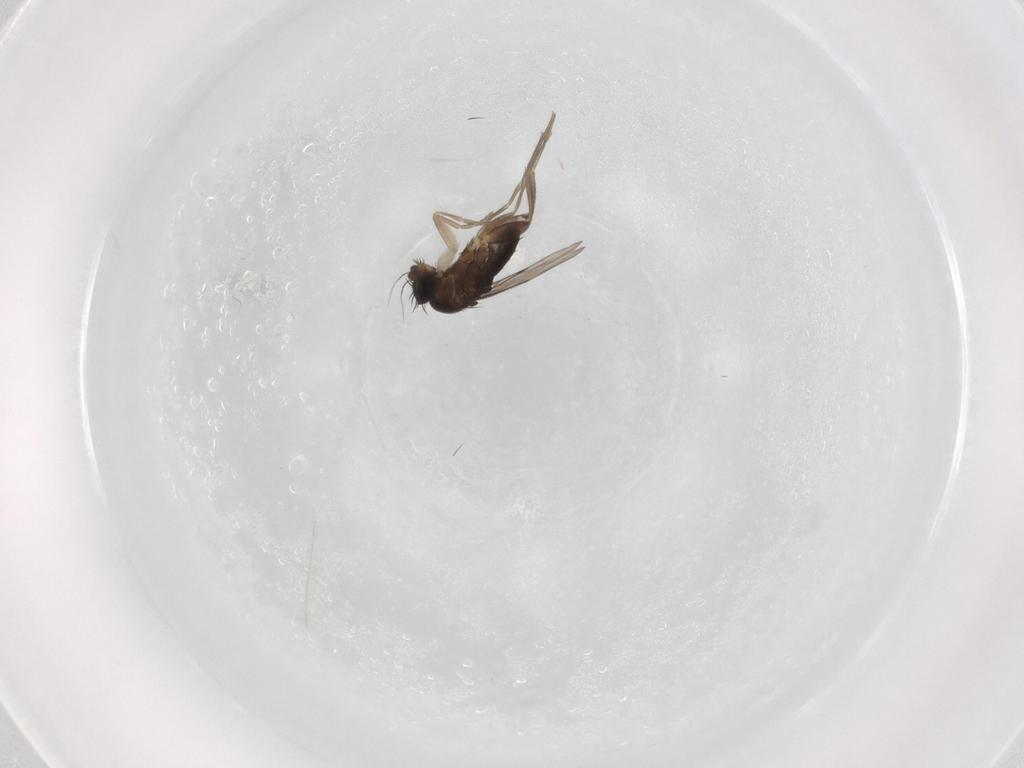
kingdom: Animalia
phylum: Arthropoda
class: Insecta
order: Diptera
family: Phoridae
